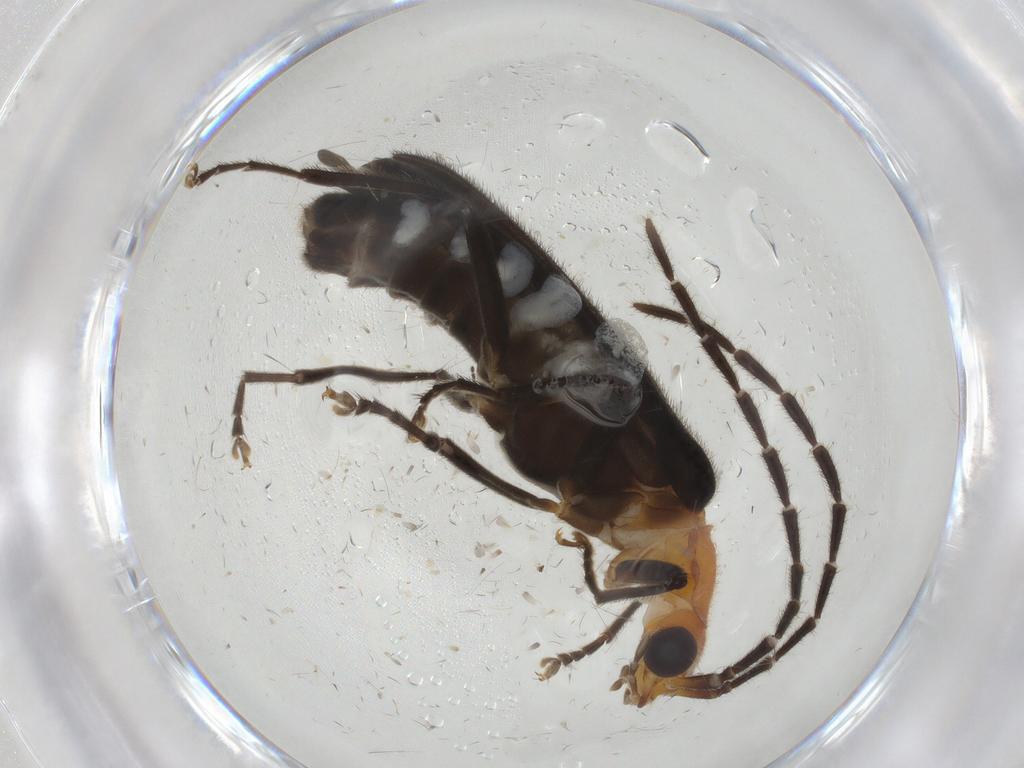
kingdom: Animalia
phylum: Arthropoda
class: Insecta
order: Coleoptera
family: Cantharidae
